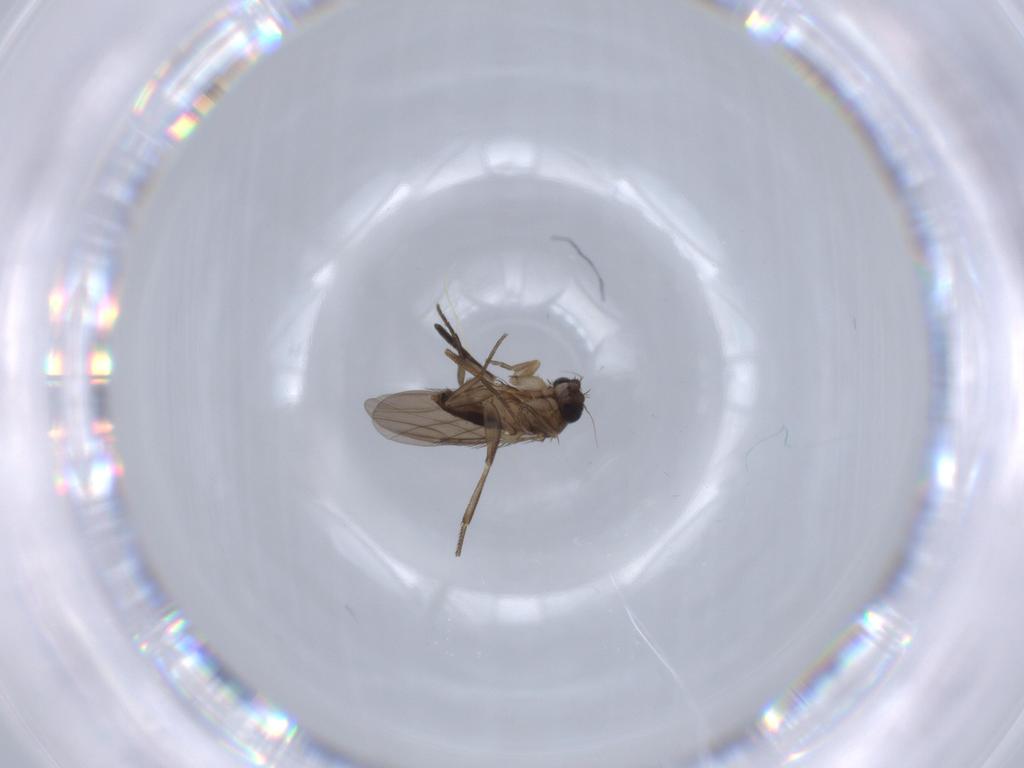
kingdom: Animalia
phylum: Arthropoda
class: Insecta
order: Diptera
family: Phoridae
